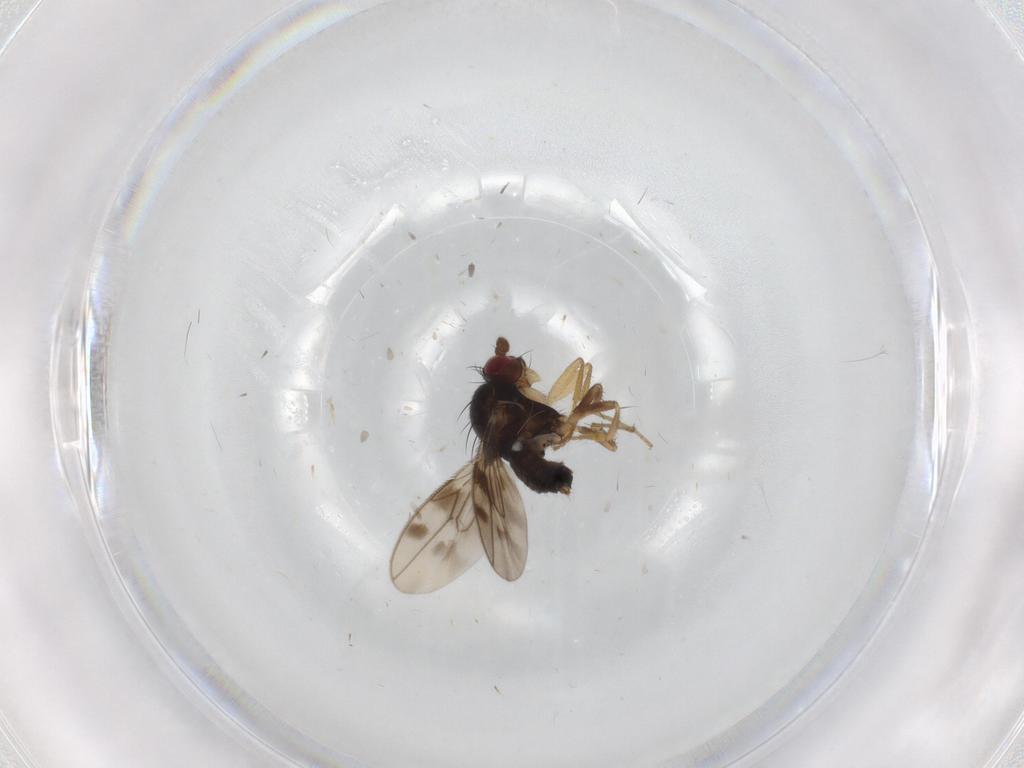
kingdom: Animalia
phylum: Arthropoda
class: Insecta
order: Diptera
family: Sphaeroceridae
